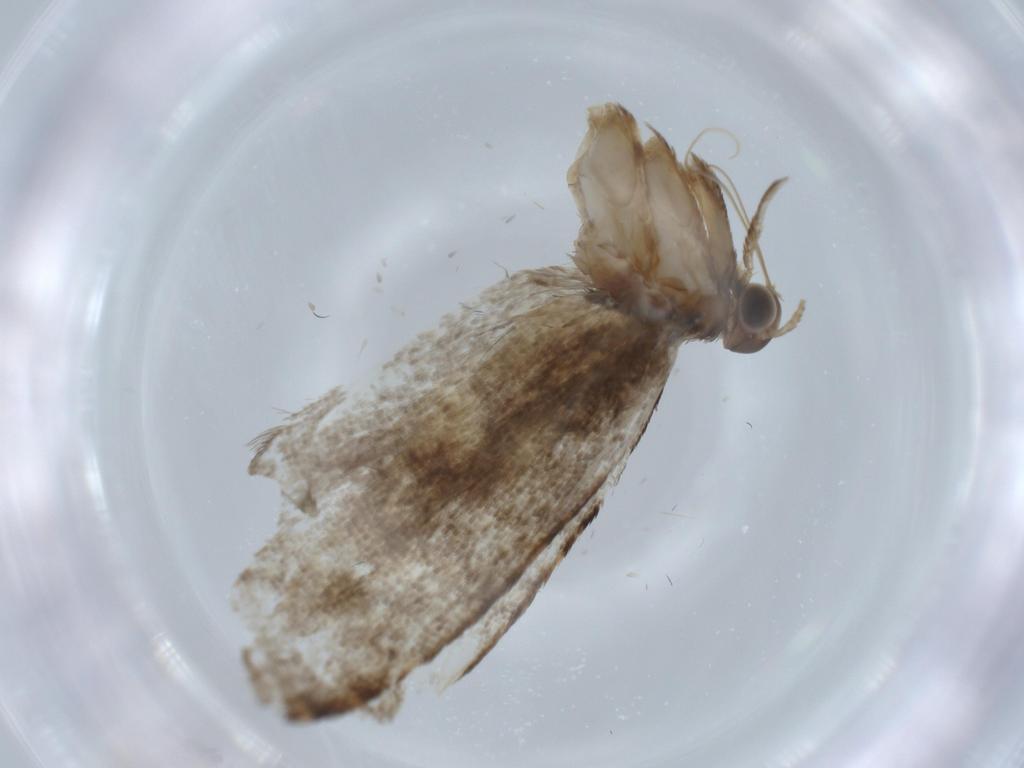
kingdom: Animalia
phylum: Arthropoda
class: Insecta
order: Lepidoptera
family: Glyphipterigidae
